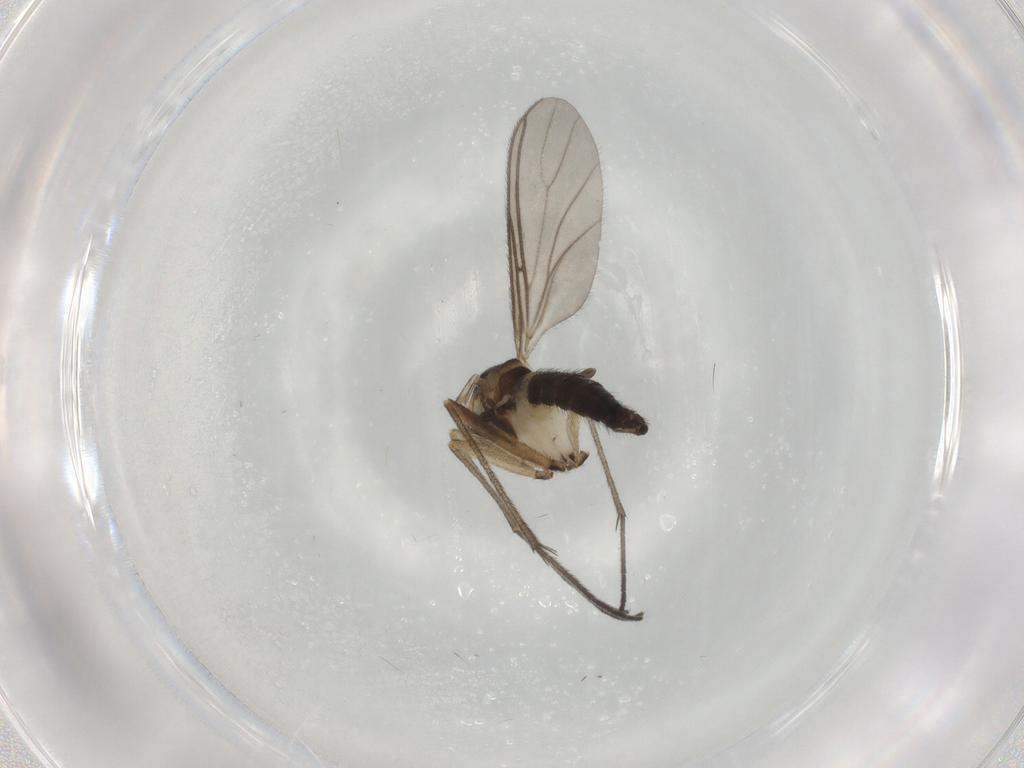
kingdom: Animalia
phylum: Arthropoda
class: Insecta
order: Diptera
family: Sciaridae
